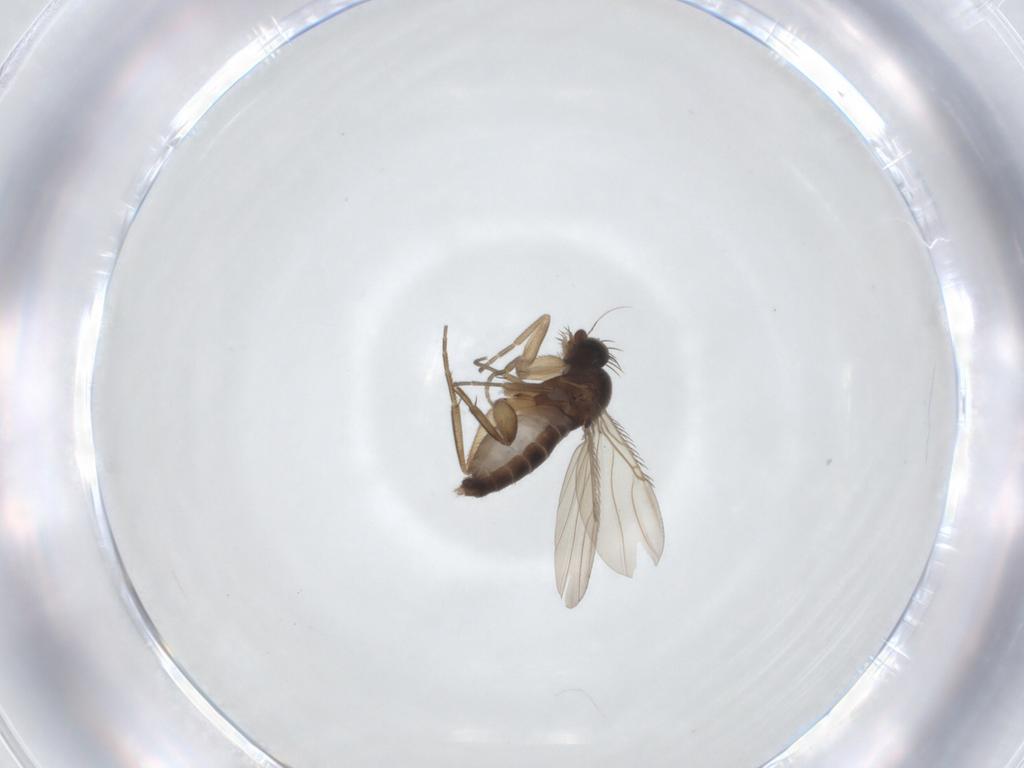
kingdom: Animalia
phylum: Arthropoda
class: Insecta
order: Diptera
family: Phoridae
